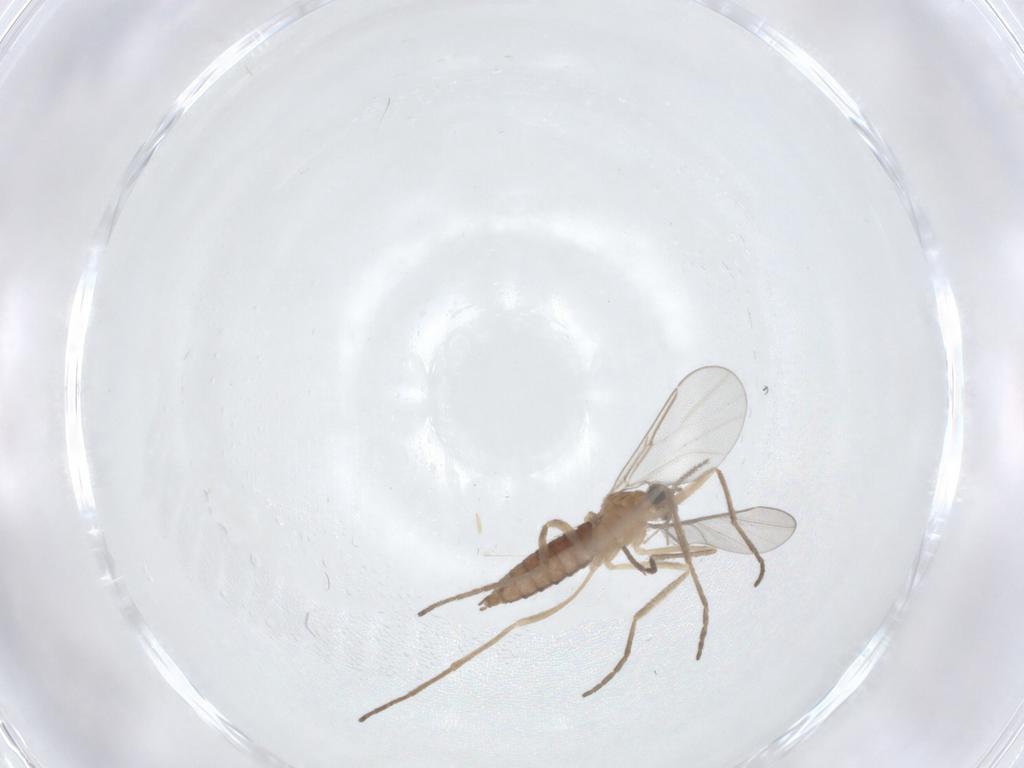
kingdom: Animalia
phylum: Arthropoda
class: Insecta
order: Diptera
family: Cecidomyiidae
